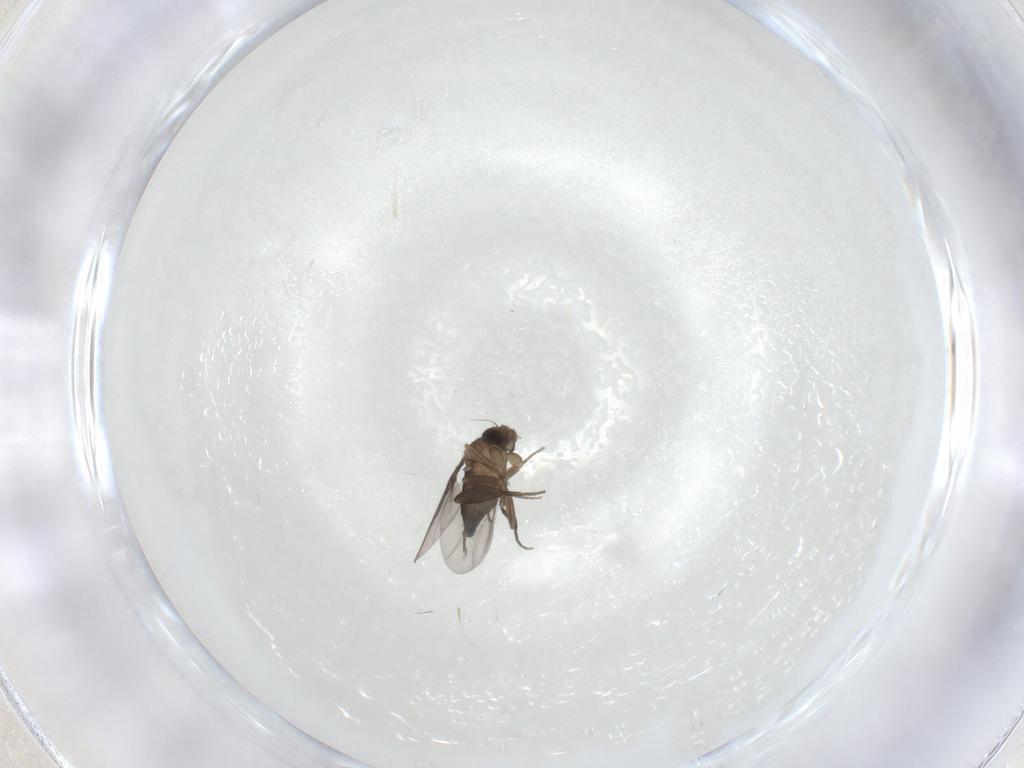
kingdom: Animalia
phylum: Arthropoda
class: Insecta
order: Diptera
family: Phoridae
